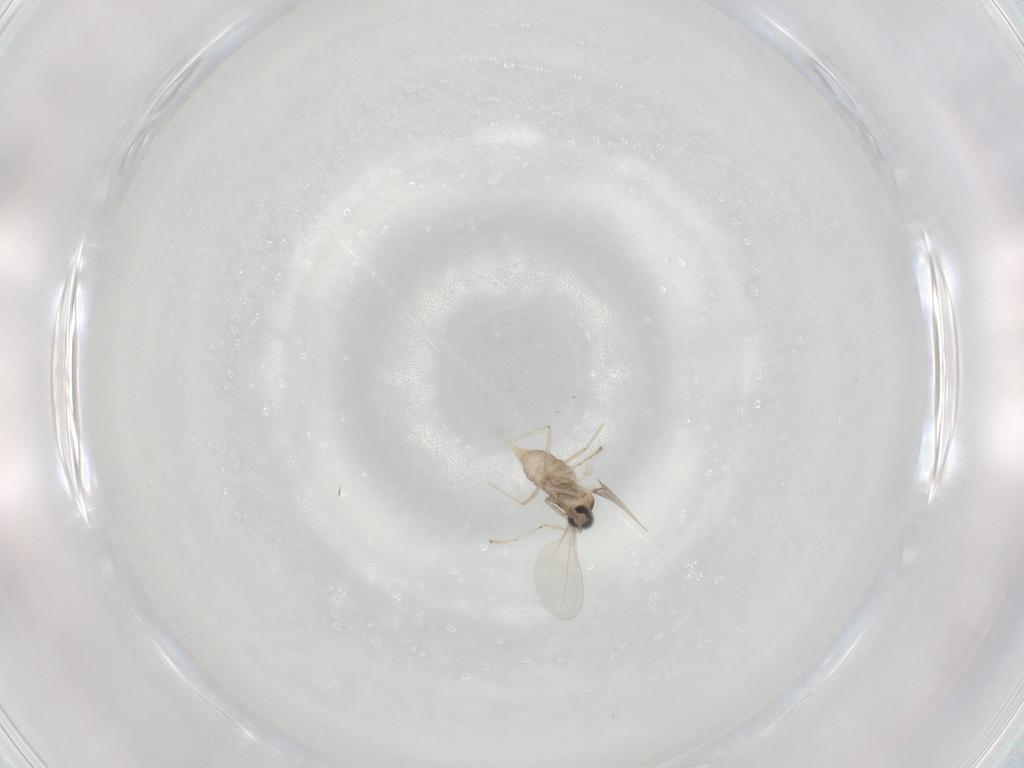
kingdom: Animalia
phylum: Arthropoda
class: Insecta
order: Diptera
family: Cecidomyiidae
